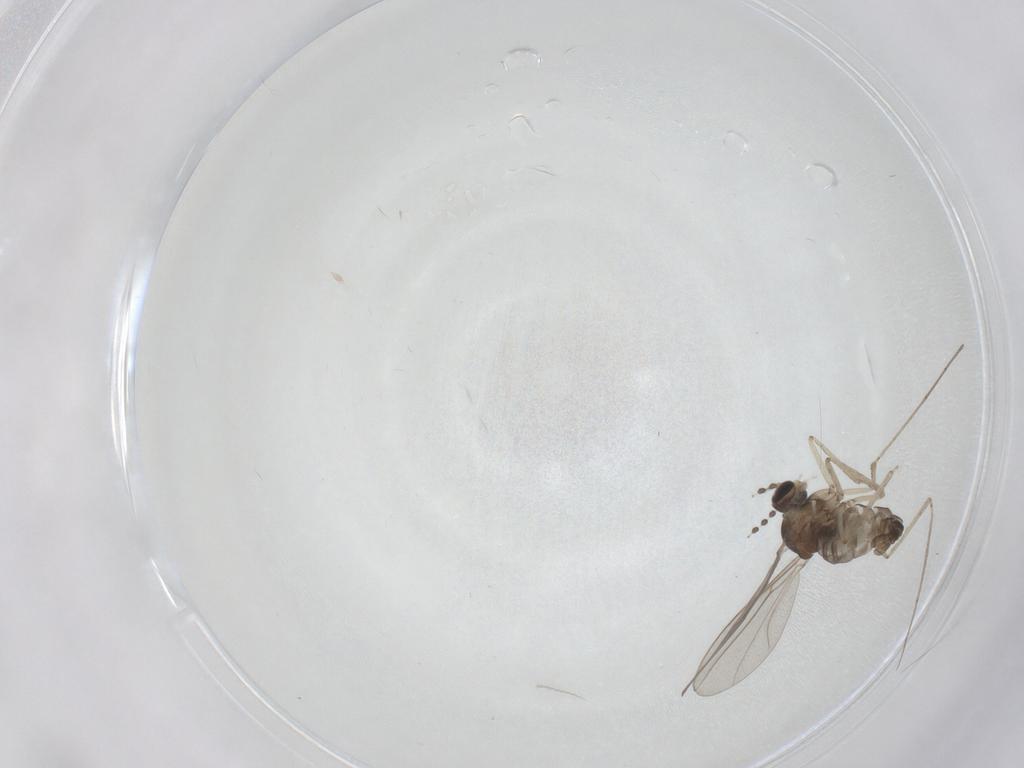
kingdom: Animalia
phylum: Arthropoda
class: Insecta
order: Diptera
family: Cecidomyiidae
